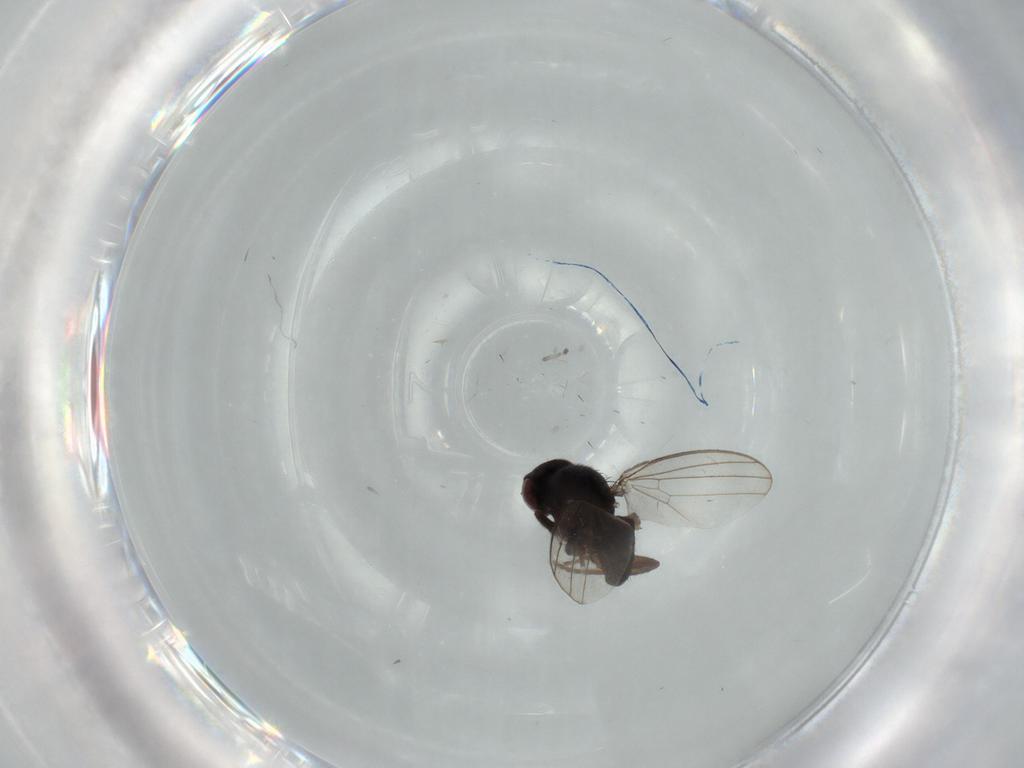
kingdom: Animalia
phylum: Arthropoda
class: Insecta
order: Diptera
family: Milichiidae
